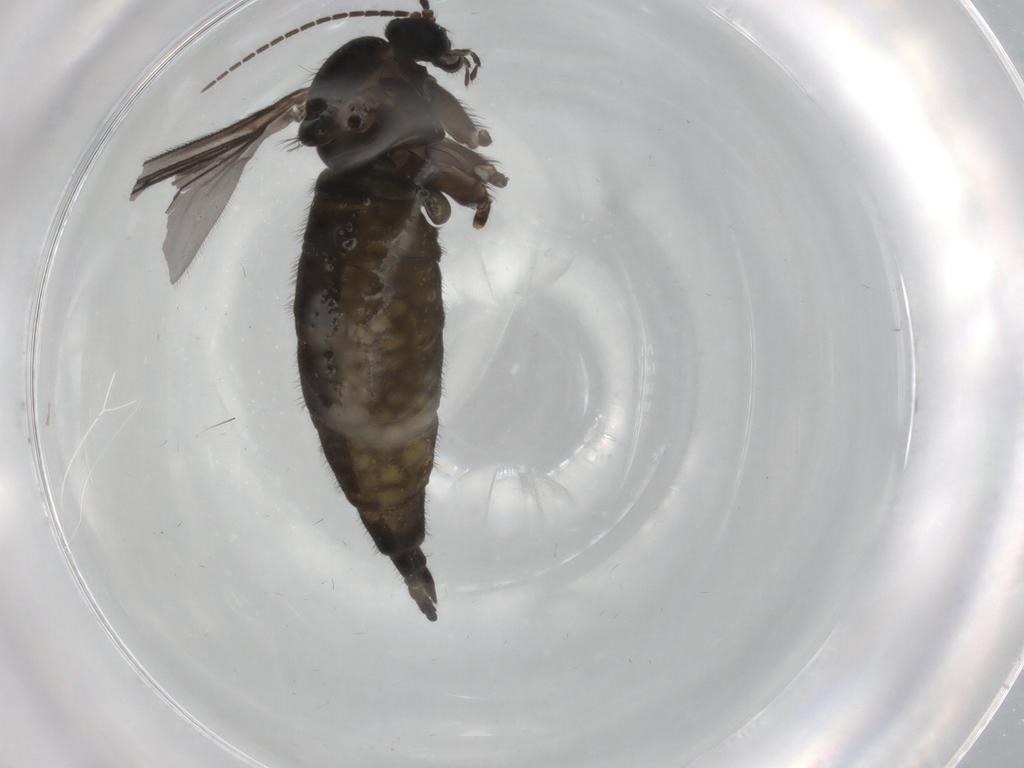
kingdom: Animalia
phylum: Arthropoda
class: Insecta
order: Diptera
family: Sciaridae
